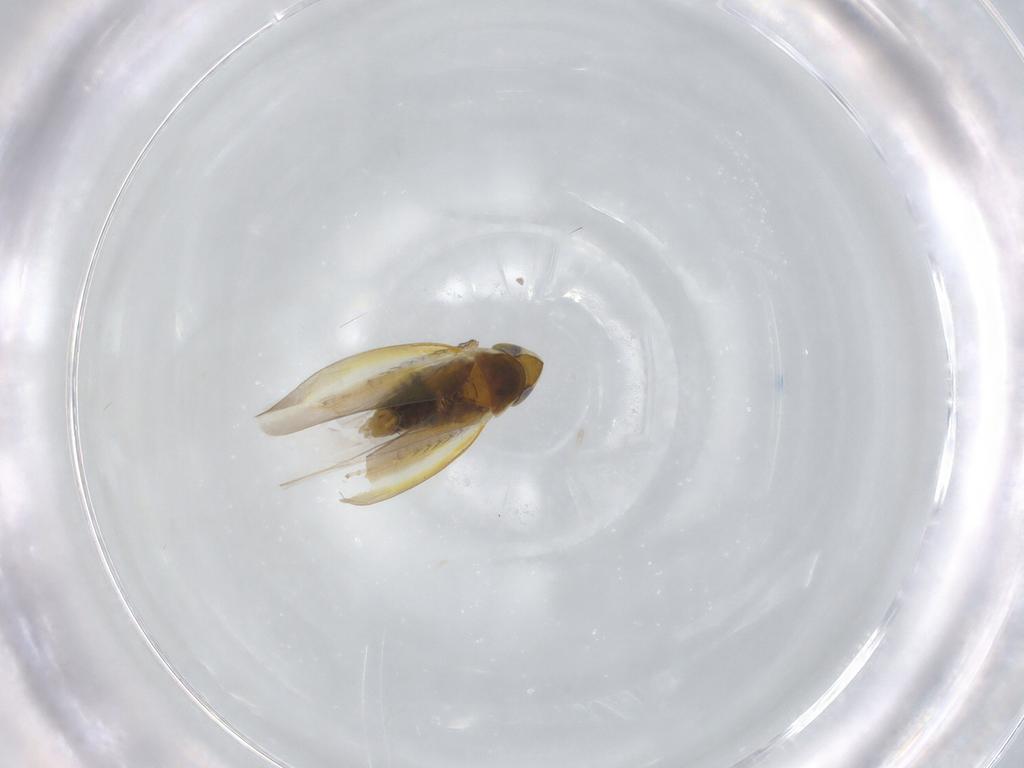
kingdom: Animalia
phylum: Arthropoda
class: Insecta
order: Hemiptera
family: Cicadellidae
